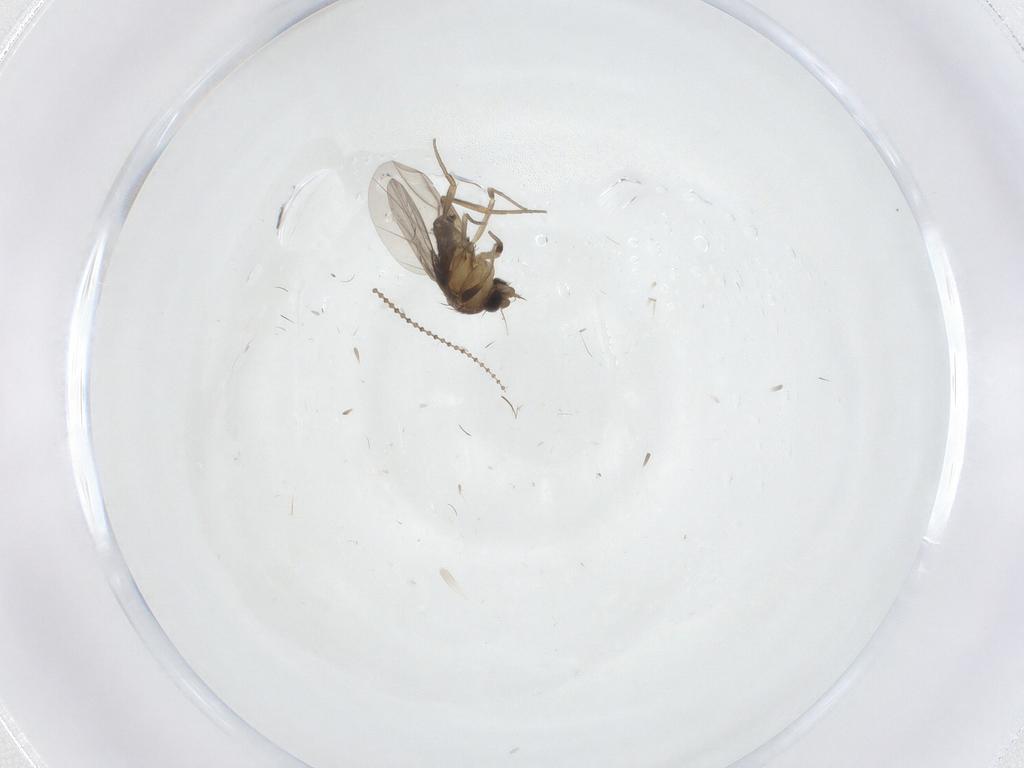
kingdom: Animalia
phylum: Arthropoda
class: Insecta
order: Diptera
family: Phoridae
